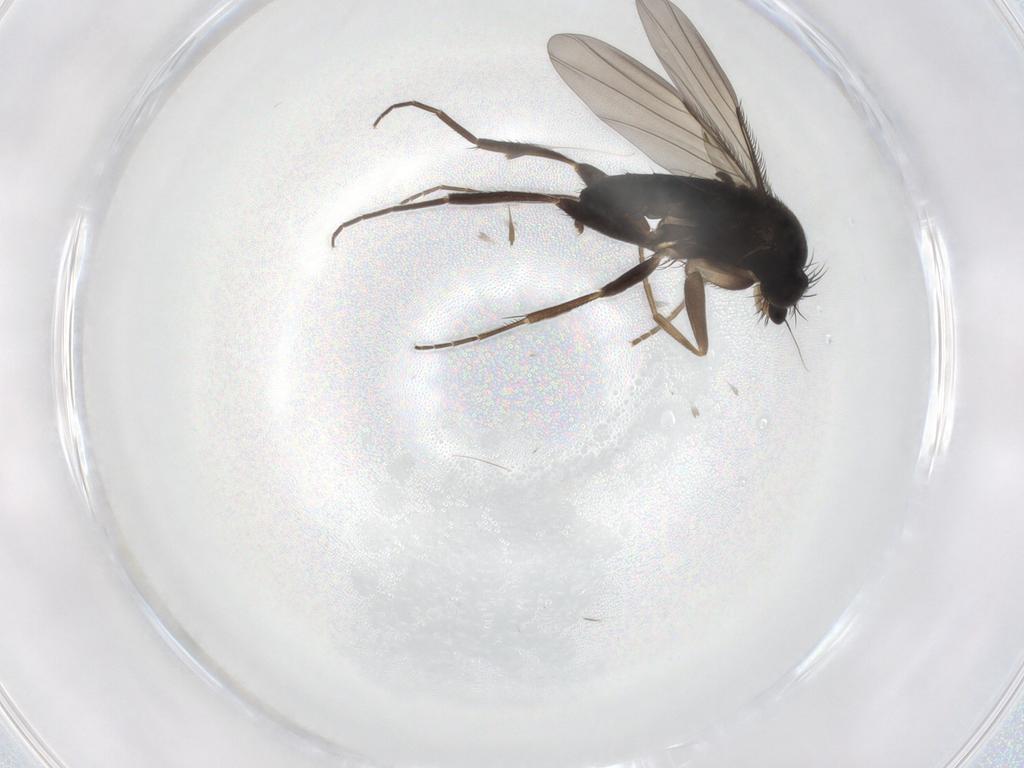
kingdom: Animalia
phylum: Arthropoda
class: Insecta
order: Diptera
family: Phoridae
